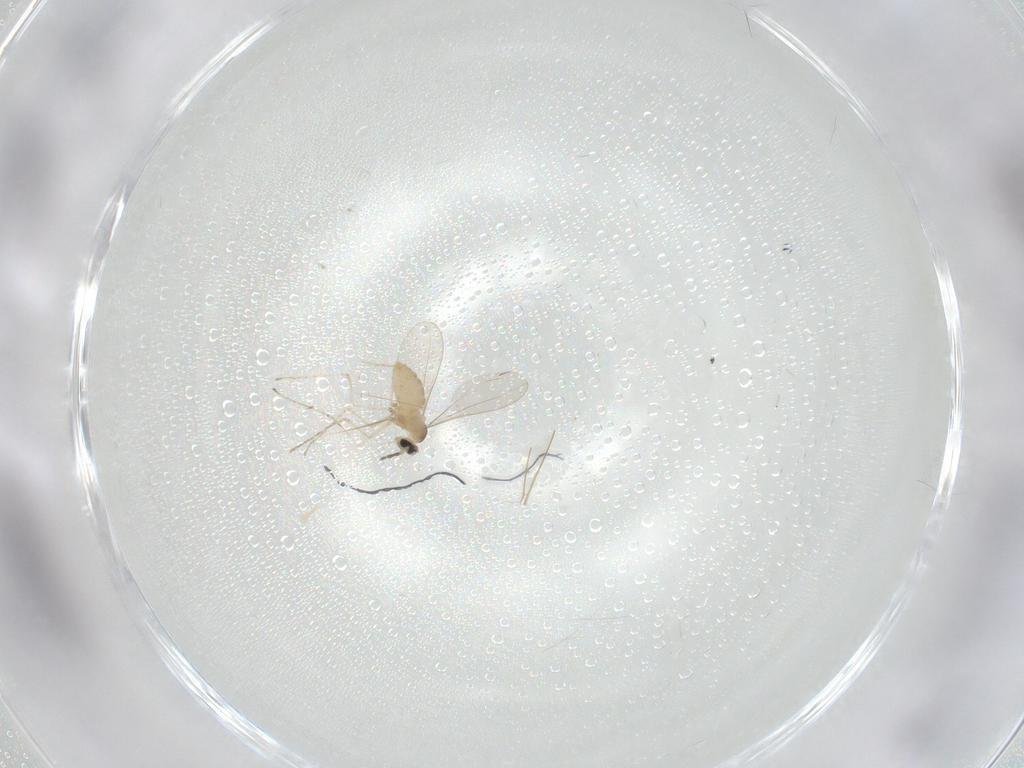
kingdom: Animalia
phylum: Arthropoda
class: Insecta
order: Diptera
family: Cecidomyiidae
